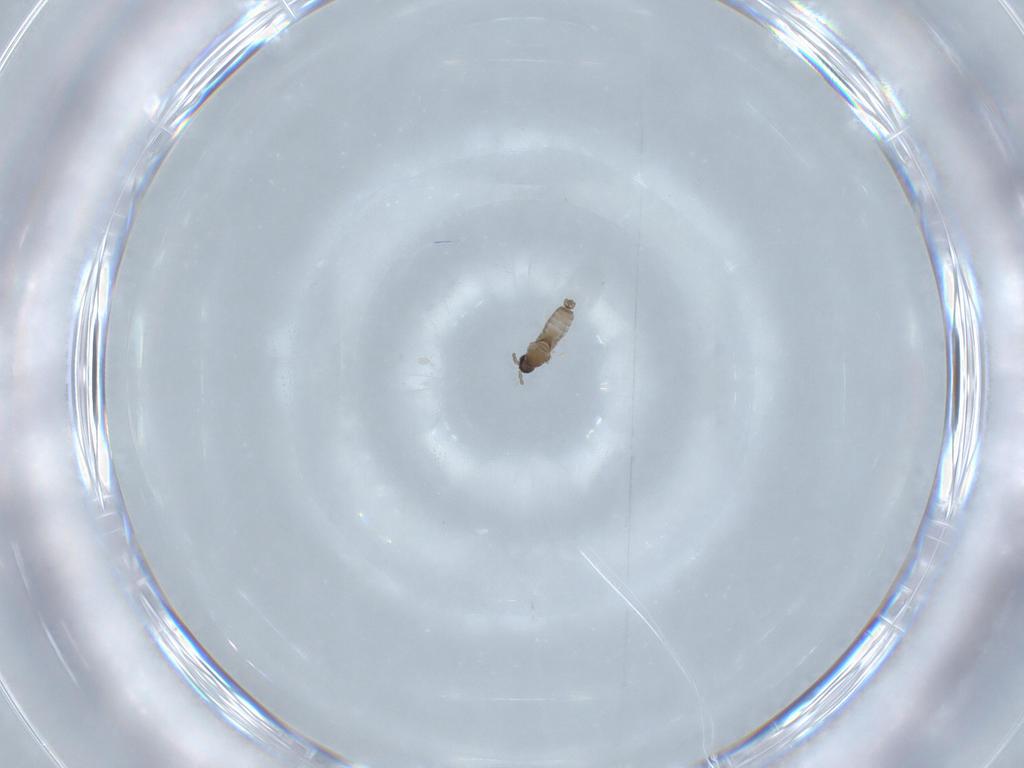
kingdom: Animalia
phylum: Arthropoda
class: Insecta
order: Diptera
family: Cecidomyiidae
